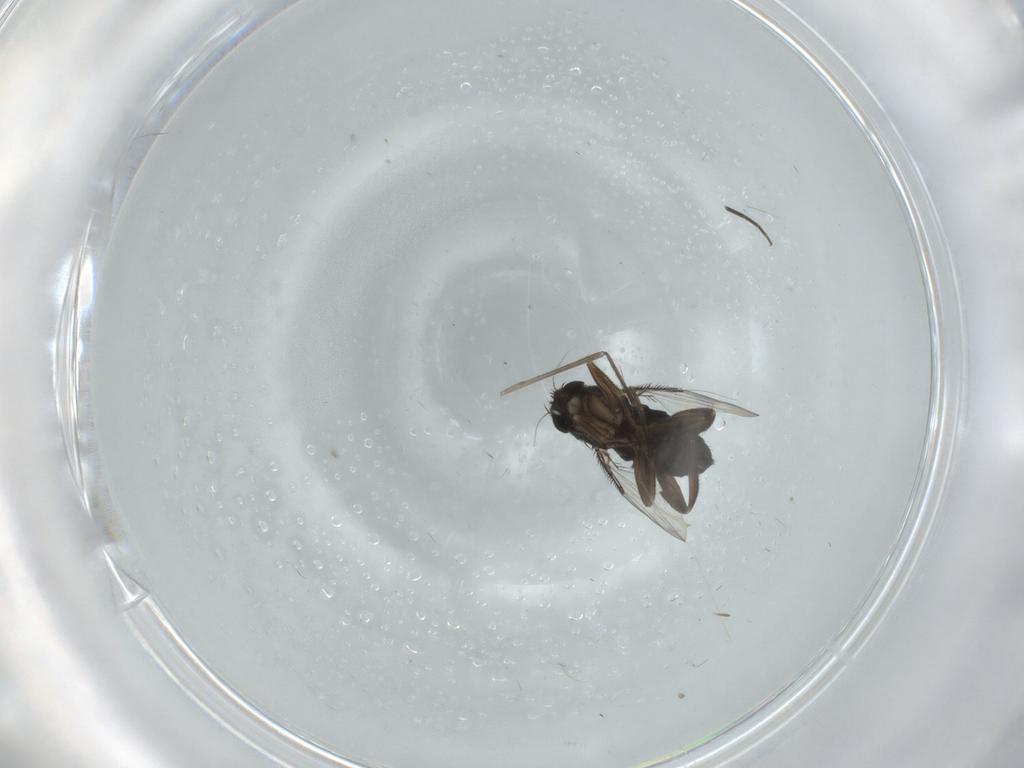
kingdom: Animalia
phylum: Arthropoda
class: Insecta
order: Diptera
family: Phoridae
